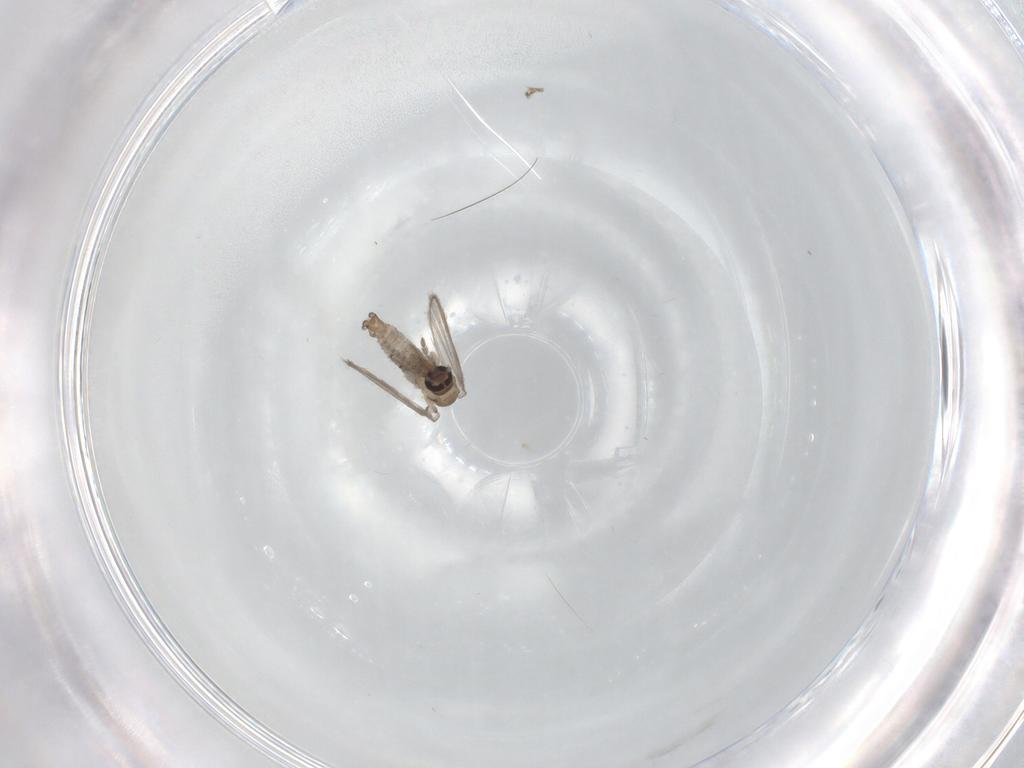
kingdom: Animalia
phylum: Arthropoda
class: Insecta
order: Diptera
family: Psychodidae
